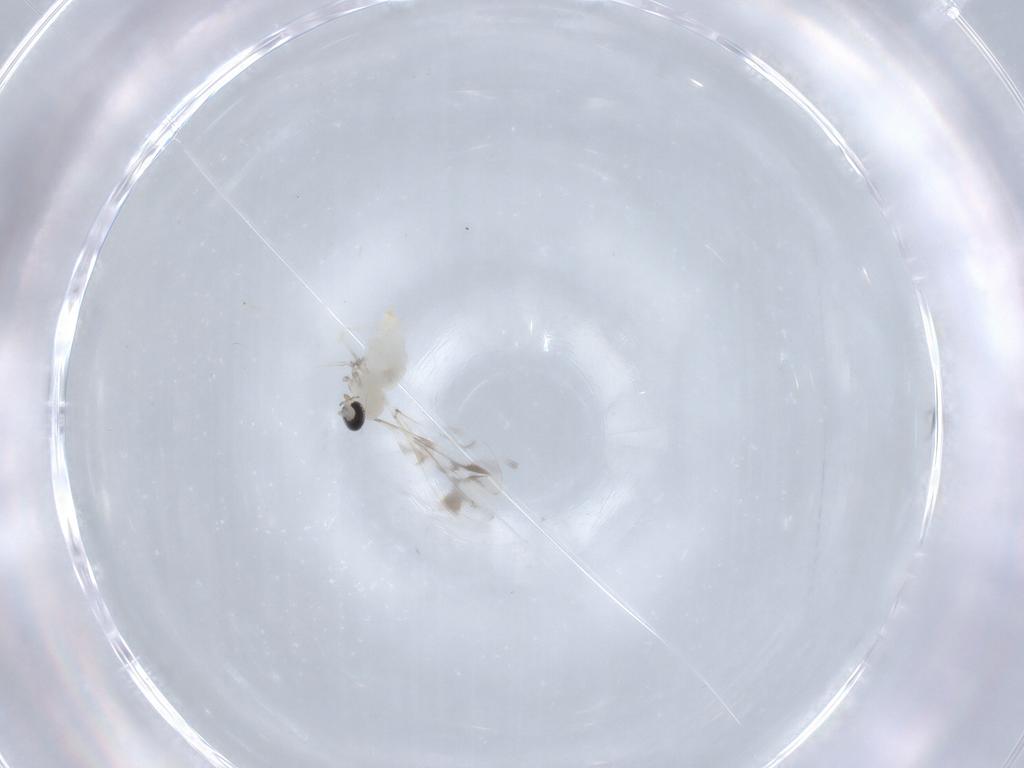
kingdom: Animalia
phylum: Arthropoda
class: Insecta
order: Diptera
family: Cecidomyiidae
